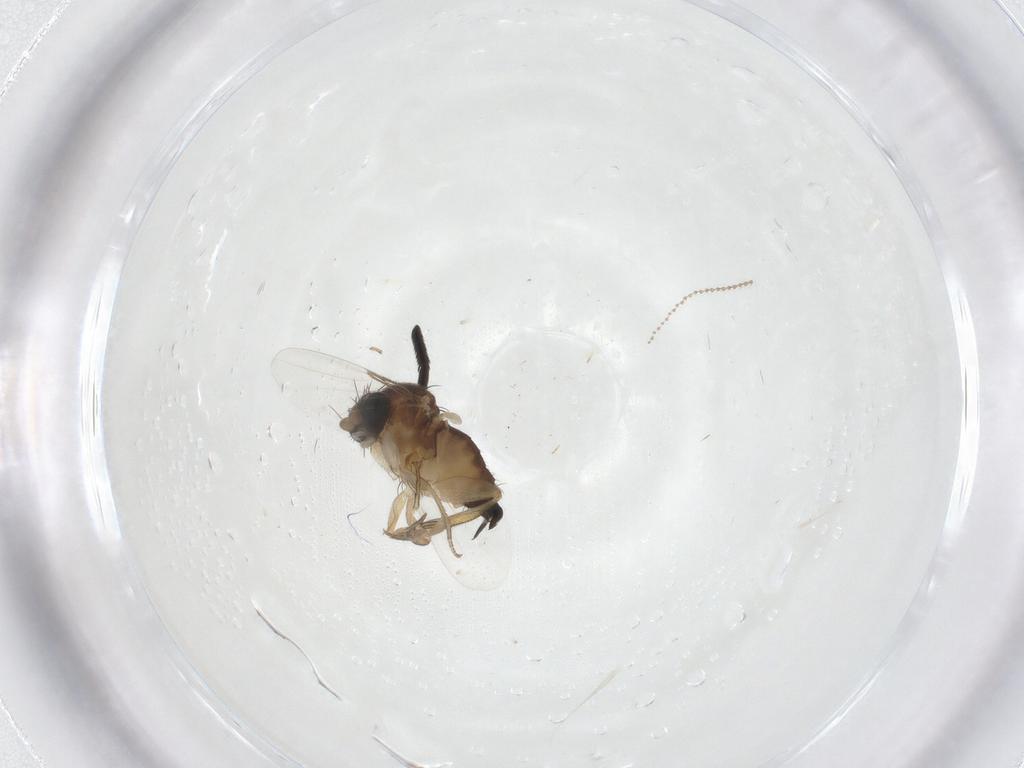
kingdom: Animalia
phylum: Arthropoda
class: Insecta
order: Diptera
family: Tachinidae
